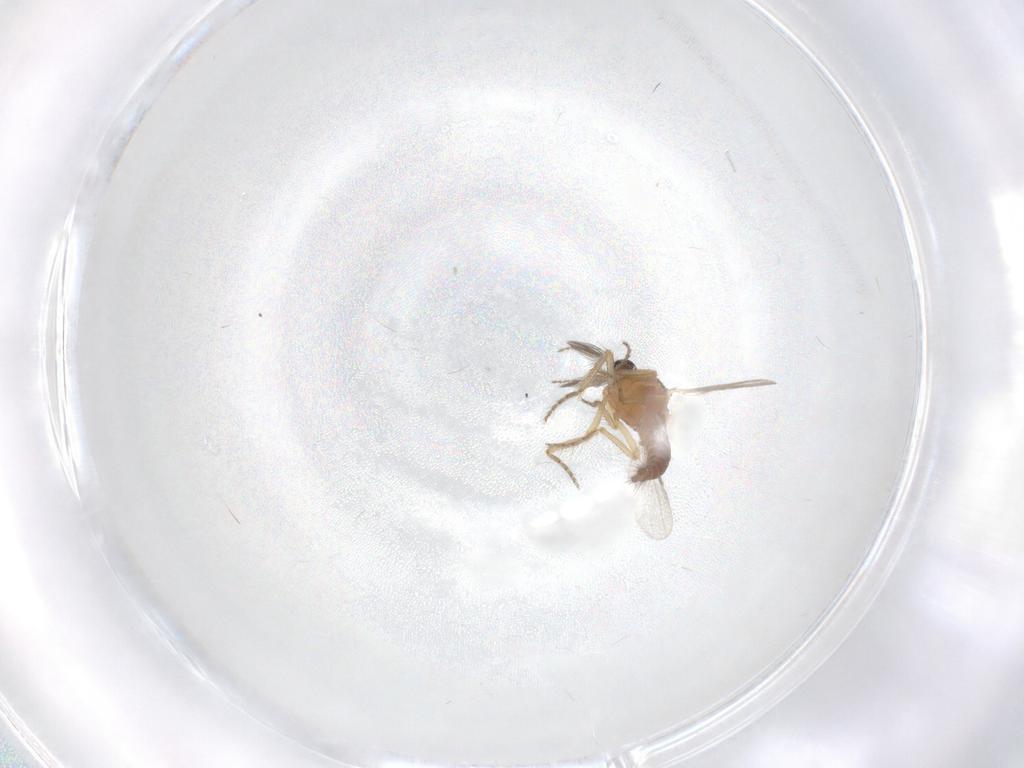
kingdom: Animalia
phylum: Arthropoda
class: Insecta
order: Diptera
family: Ceratopogonidae
